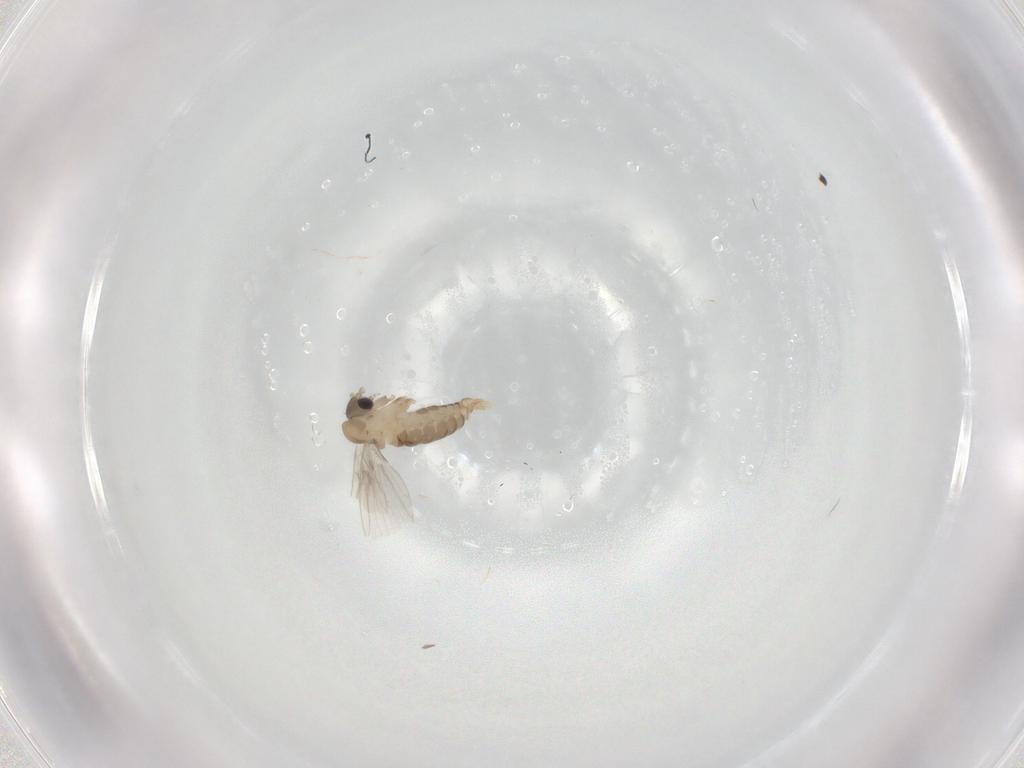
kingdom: Animalia
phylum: Arthropoda
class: Insecta
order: Diptera
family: Psychodidae
